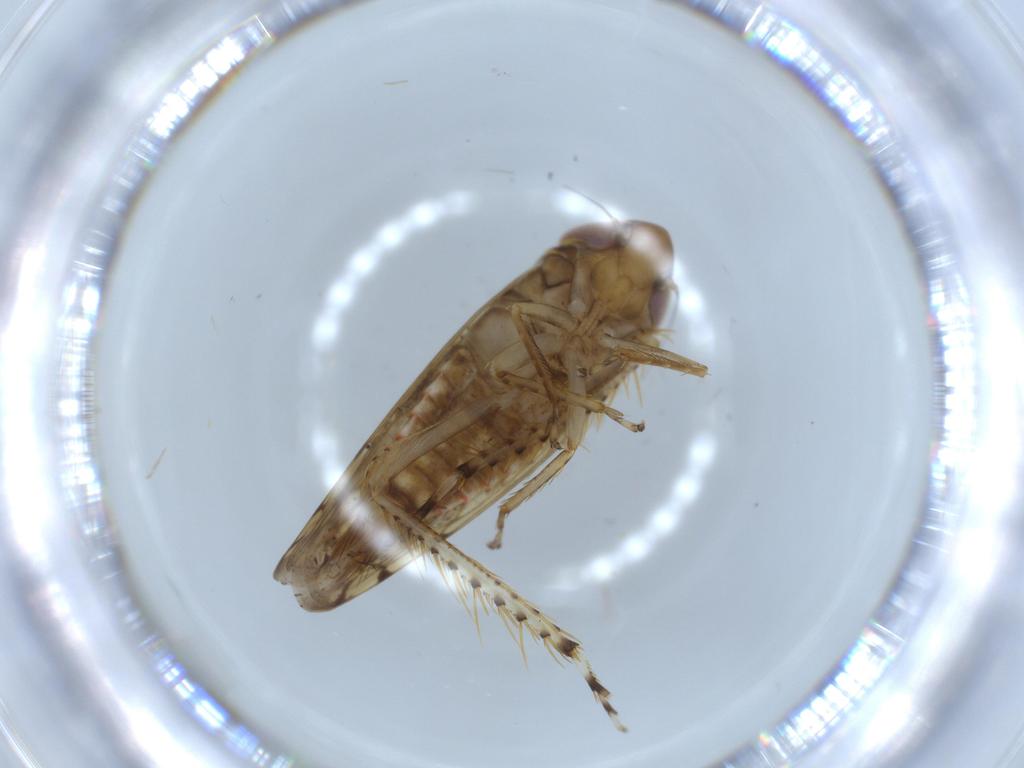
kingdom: Animalia
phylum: Arthropoda
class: Insecta
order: Hemiptera
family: Cicadellidae
